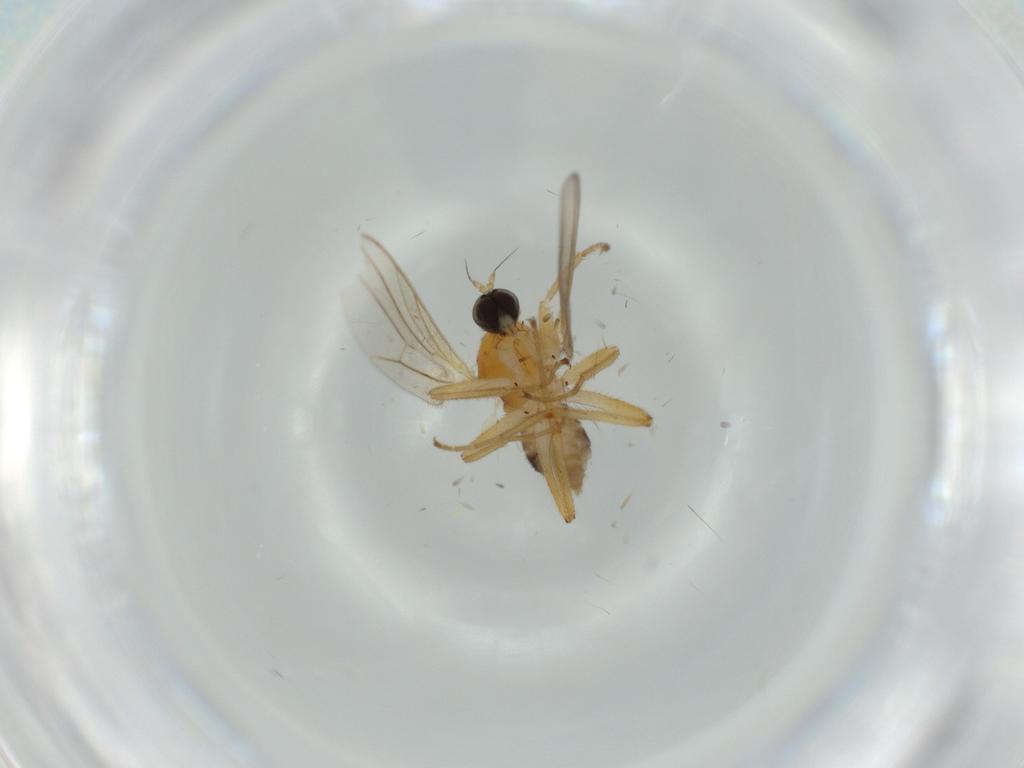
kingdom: Animalia
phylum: Arthropoda
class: Insecta
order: Diptera
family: Hybotidae
